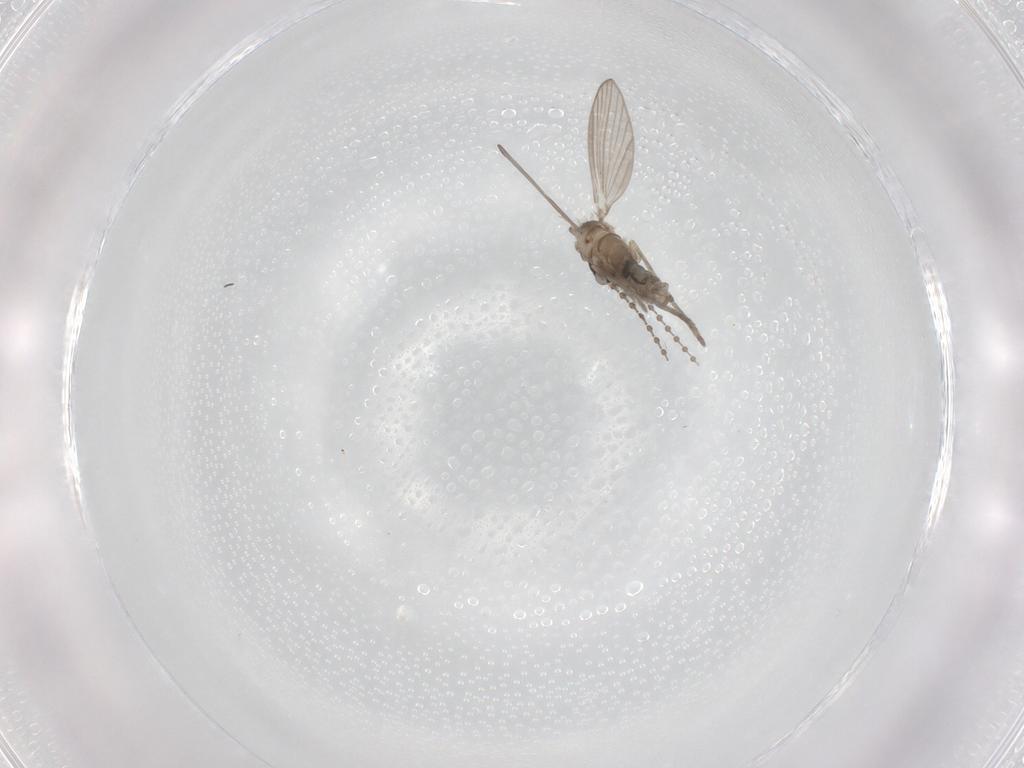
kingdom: Animalia
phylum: Arthropoda
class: Insecta
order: Diptera
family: Psychodidae
